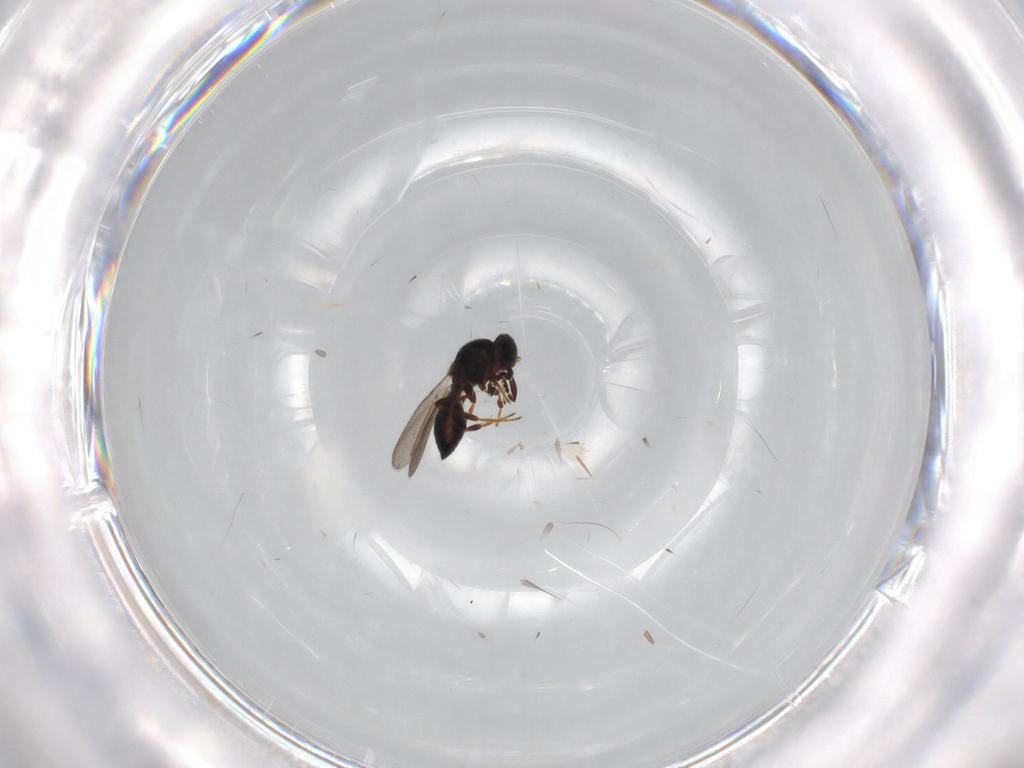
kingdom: Animalia
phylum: Arthropoda
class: Insecta
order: Hymenoptera
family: Platygastridae
